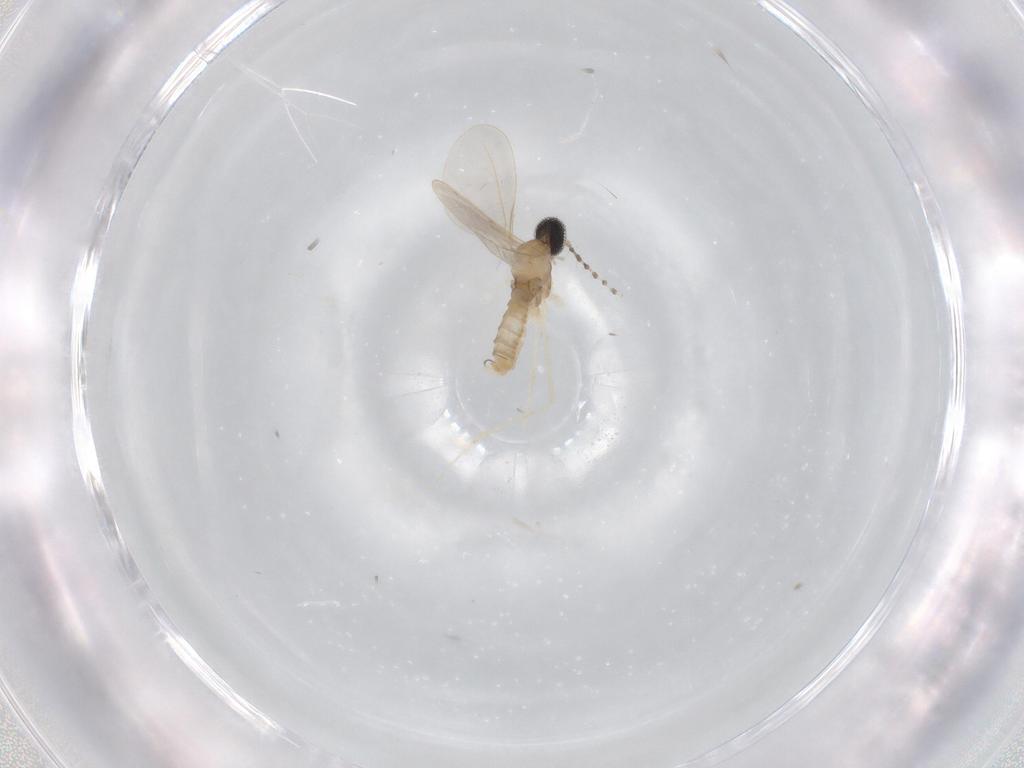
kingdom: Animalia
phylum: Arthropoda
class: Insecta
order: Diptera
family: Cecidomyiidae
